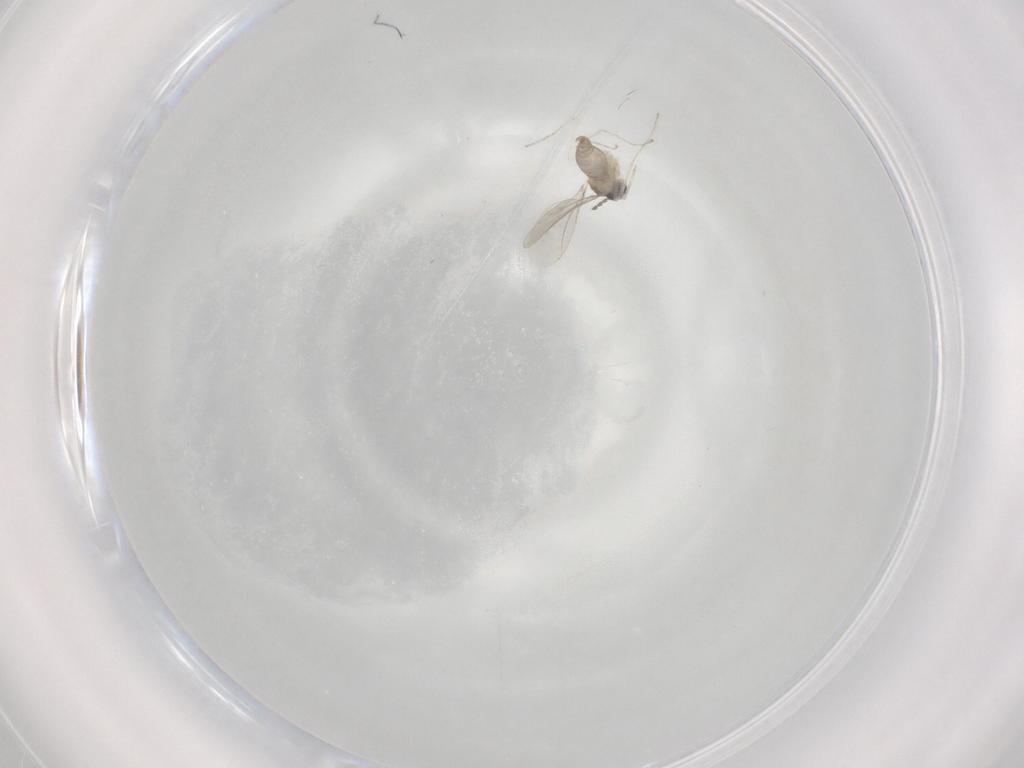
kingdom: Animalia
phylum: Arthropoda
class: Insecta
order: Diptera
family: Cecidomyiidae
